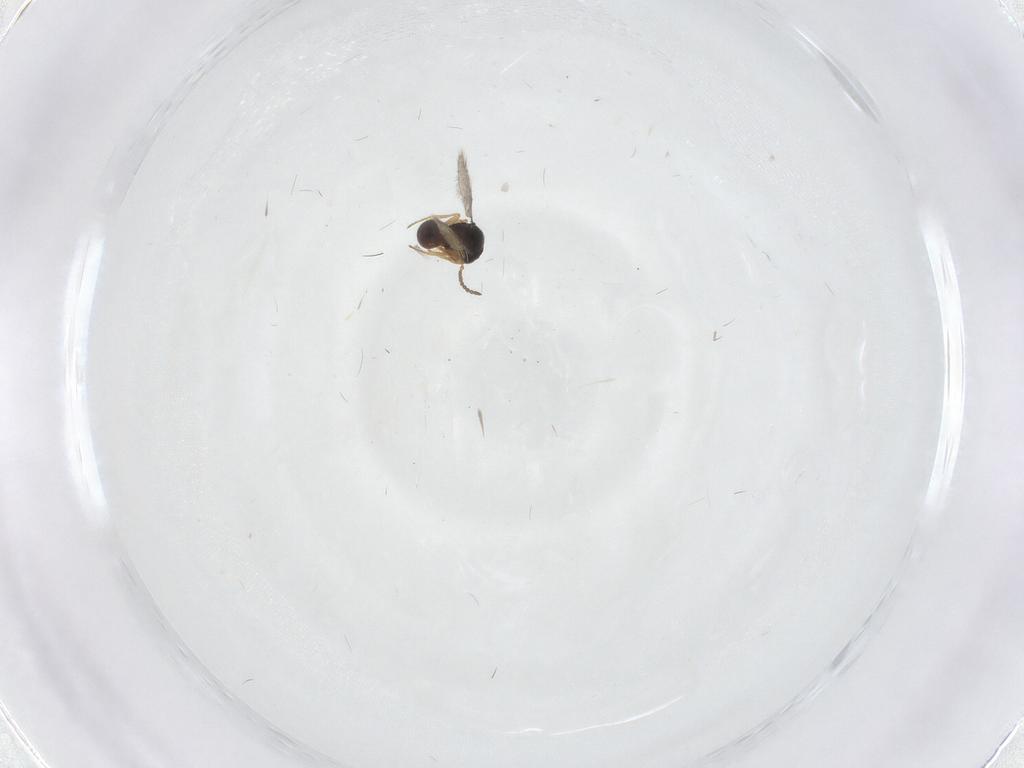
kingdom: Animalia
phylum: Arthropoda
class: Insecta
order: Hymenoptera
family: Scelionidae
